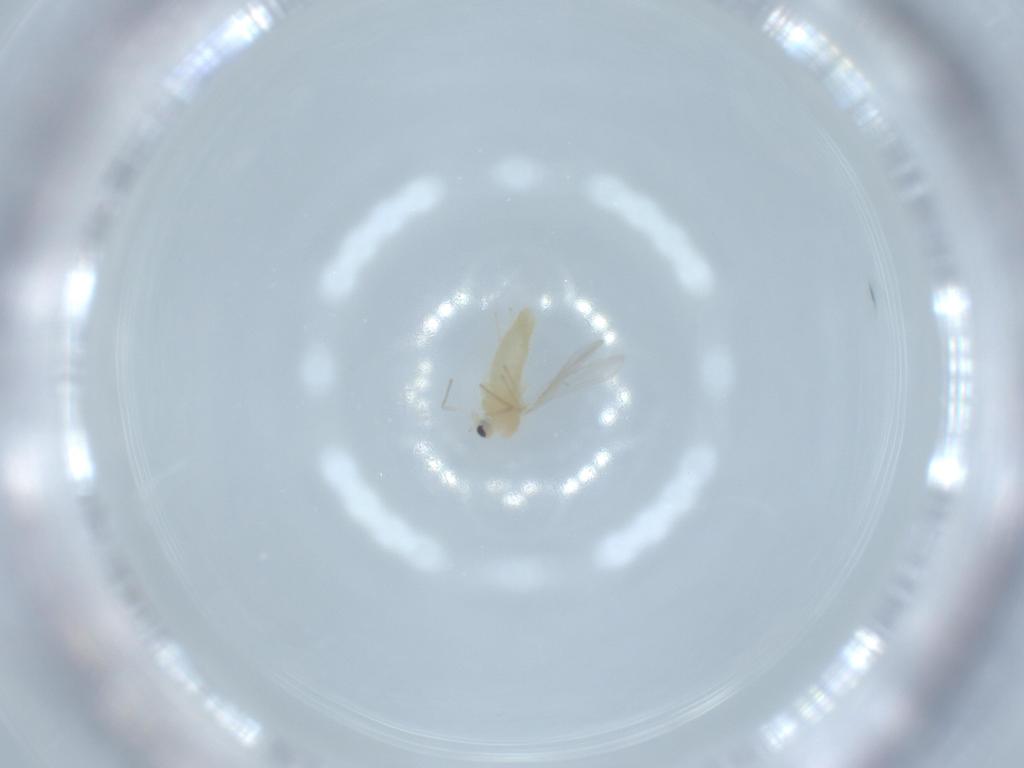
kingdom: Animalia
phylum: Arthropoda
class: Insecta
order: Diptera
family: Chironomidae
